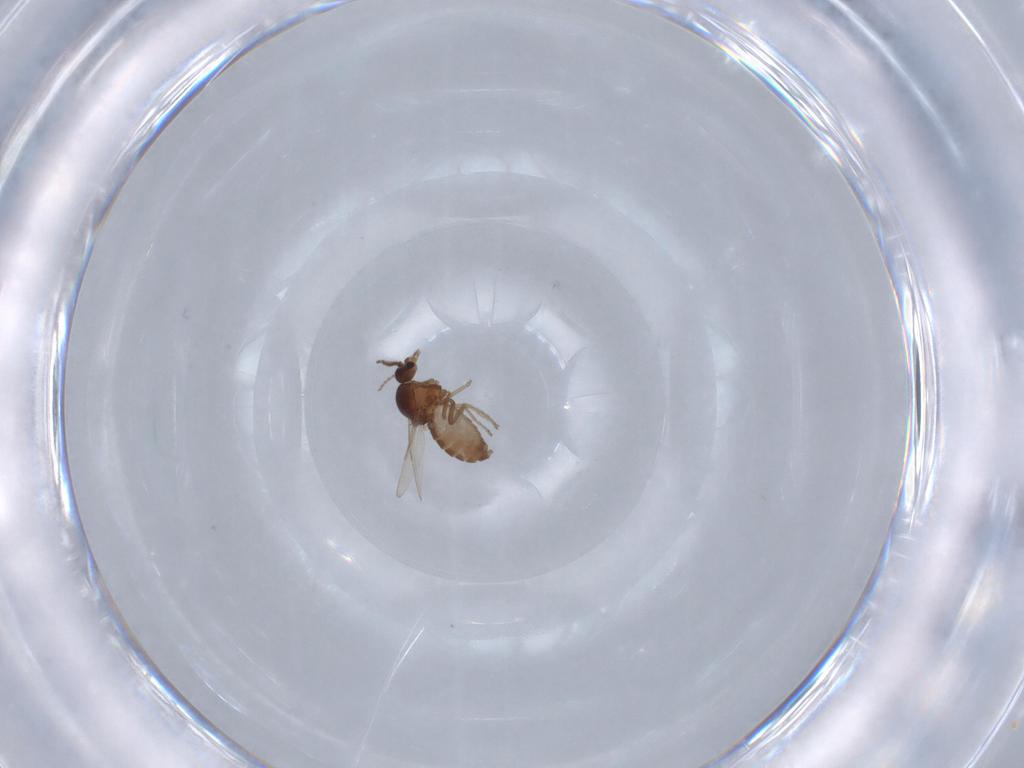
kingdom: Animalia
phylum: Arthropoda
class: Insecta
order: Diptera
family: Ceratopogonidae
